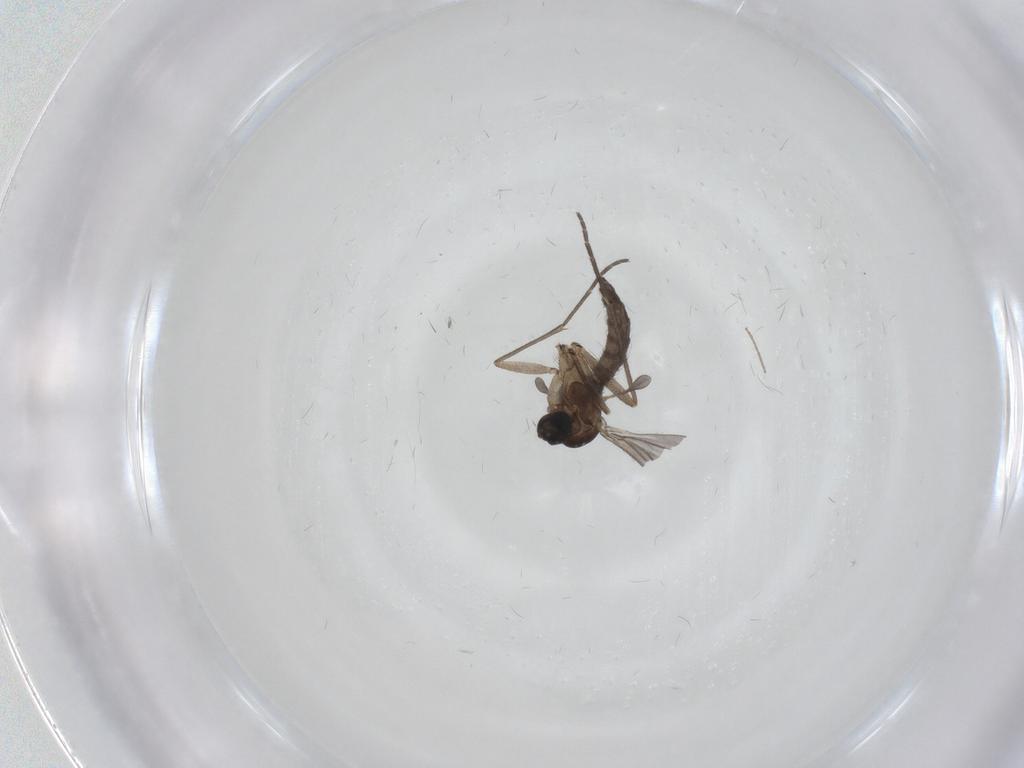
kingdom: Animalia
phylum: Arthropoda
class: Insecta
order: Diptera
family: Sciaridae
